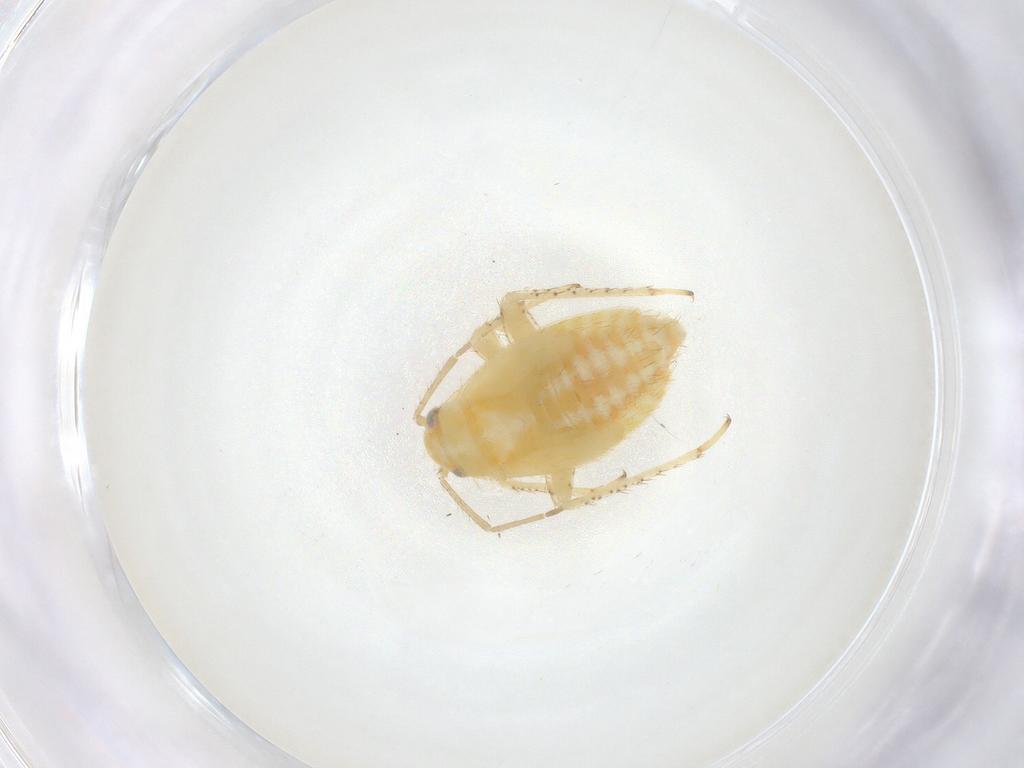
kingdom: Animalia
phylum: Arthropoda
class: Insecta
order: Hemiptera
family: Miridae
